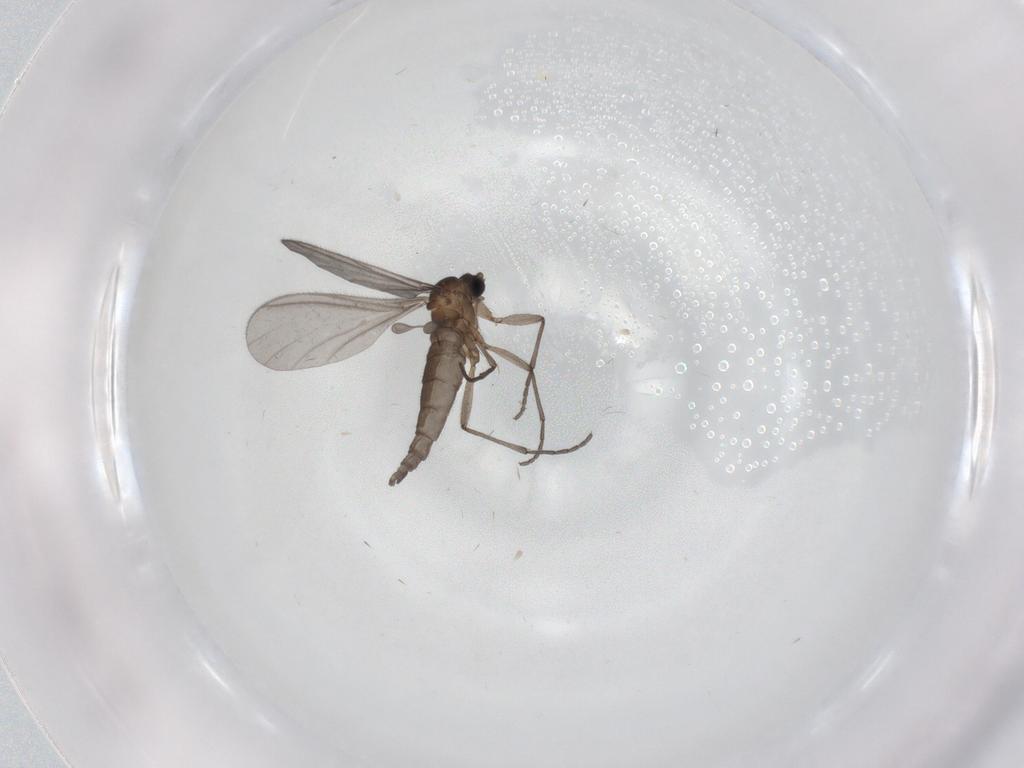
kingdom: Animalia
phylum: Arthropoda
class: Insecta
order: Diptera
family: Sciaridae
